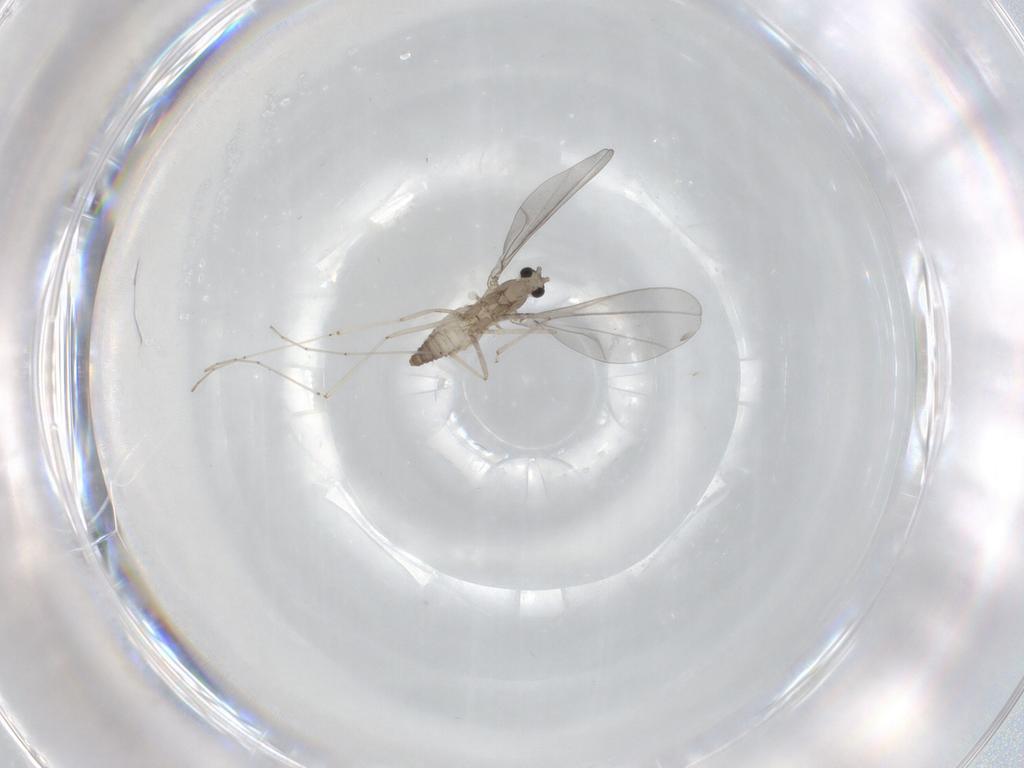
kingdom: Animalia
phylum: Arthropoda
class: Insecta
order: Diptera
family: Cecidomyiidae
